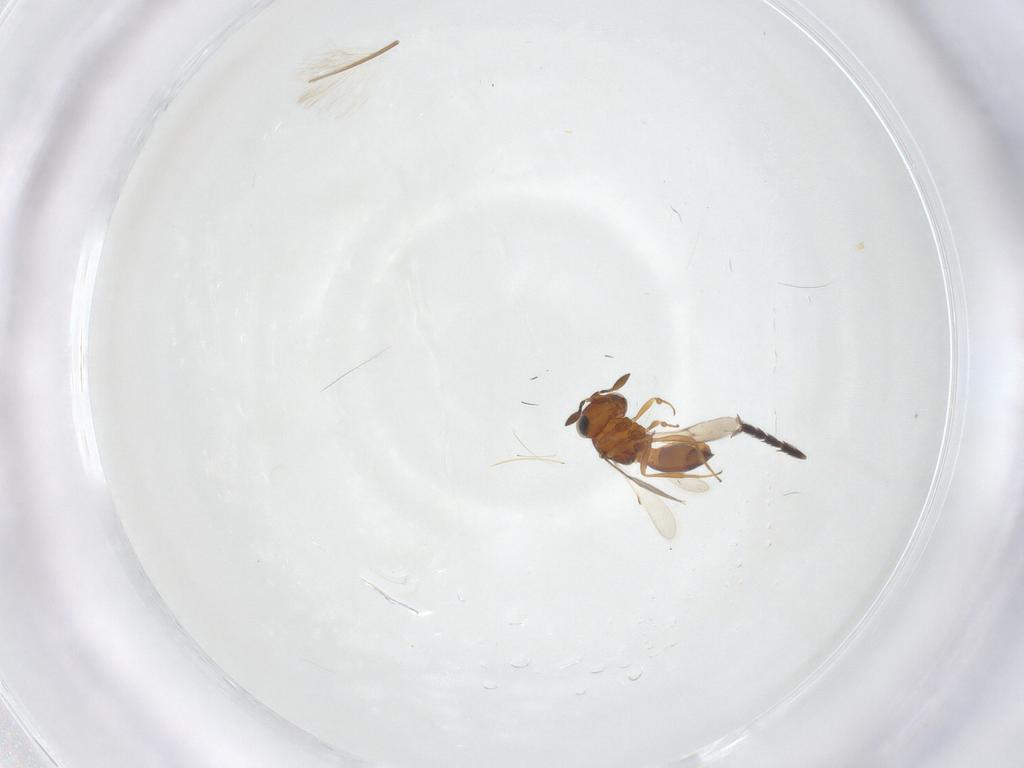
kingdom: Animalia
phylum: Arthropoda
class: Insecta
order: Hymenoptera
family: Scelionidae
